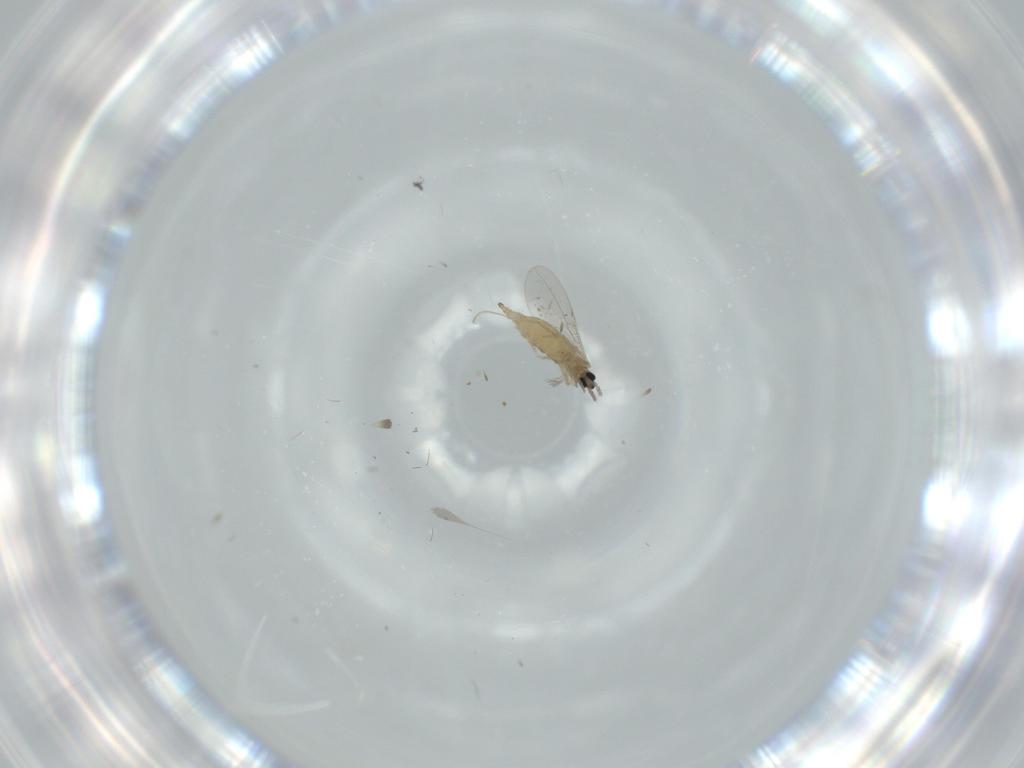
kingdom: Animalia
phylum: Arthropoda
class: Insecta
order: Diptera
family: Cecidomyiidae
